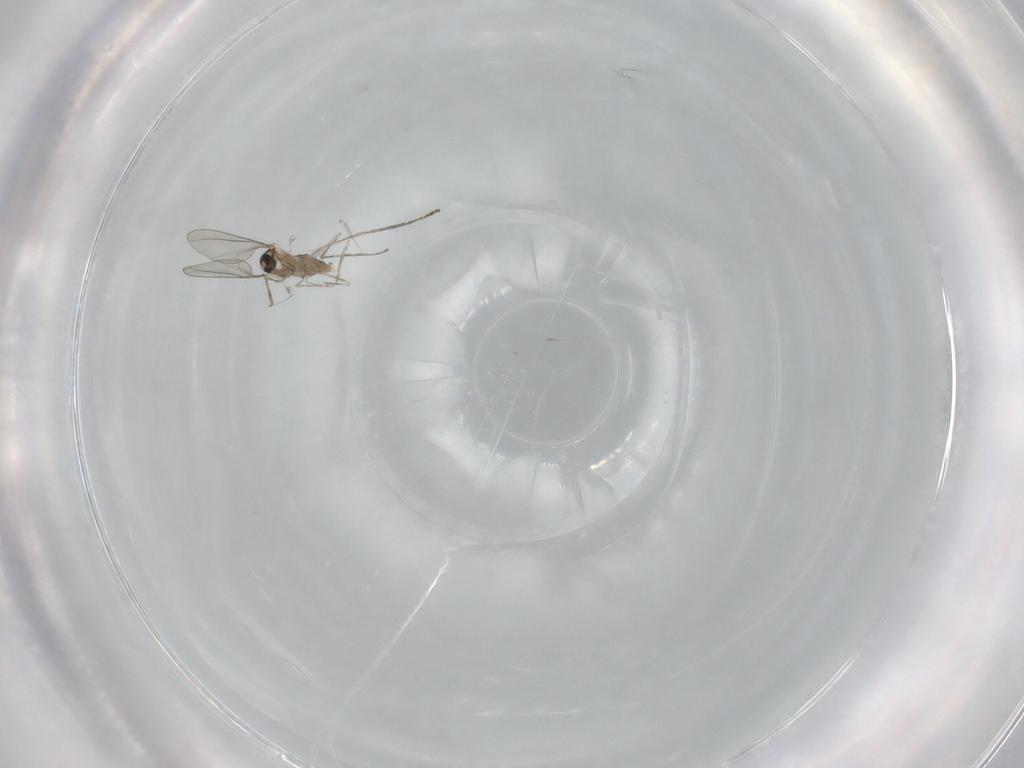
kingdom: Animalia
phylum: Arthropoda
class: Insecta
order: Diptera
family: Cecidomyiidae
